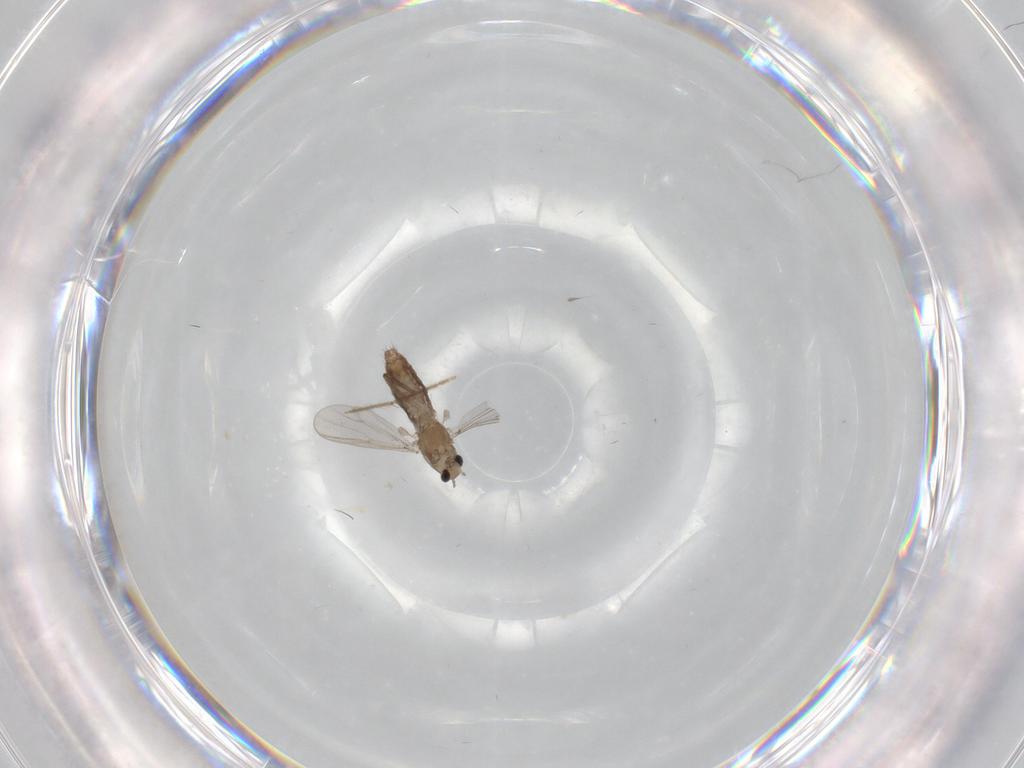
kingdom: Animalia
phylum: Arthropoda
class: Insecta
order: Diptera
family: Chironomidae
